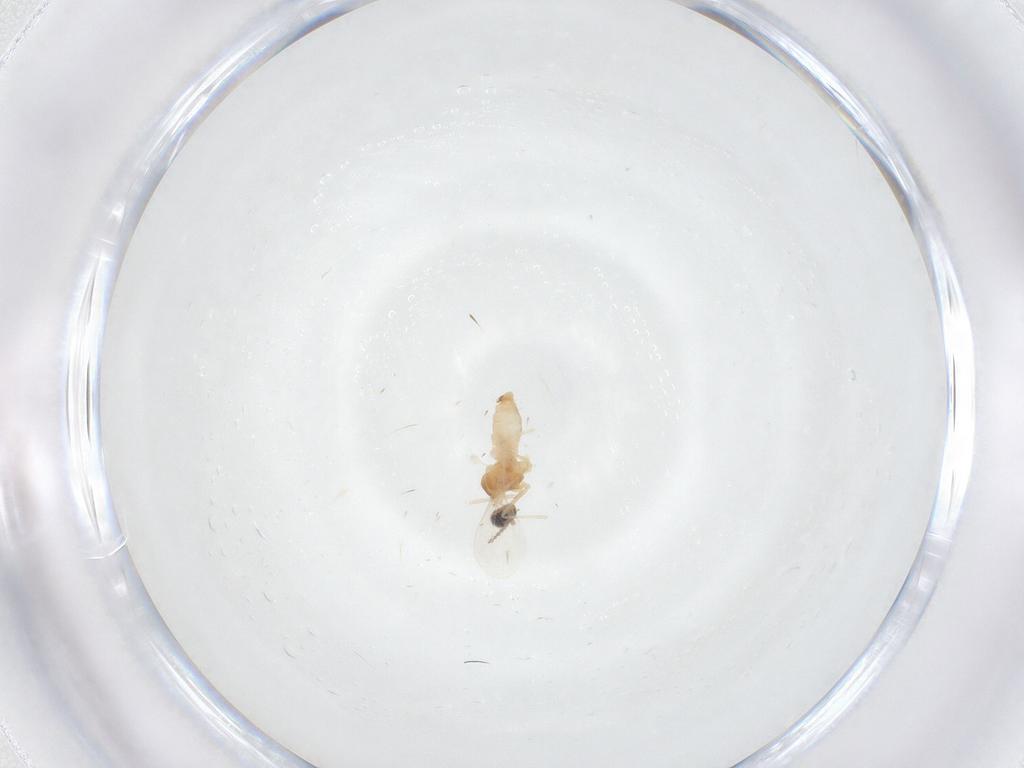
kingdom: Animalia
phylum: Arthropoda
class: Insecta
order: Diptera
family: Cecidomyiidae
